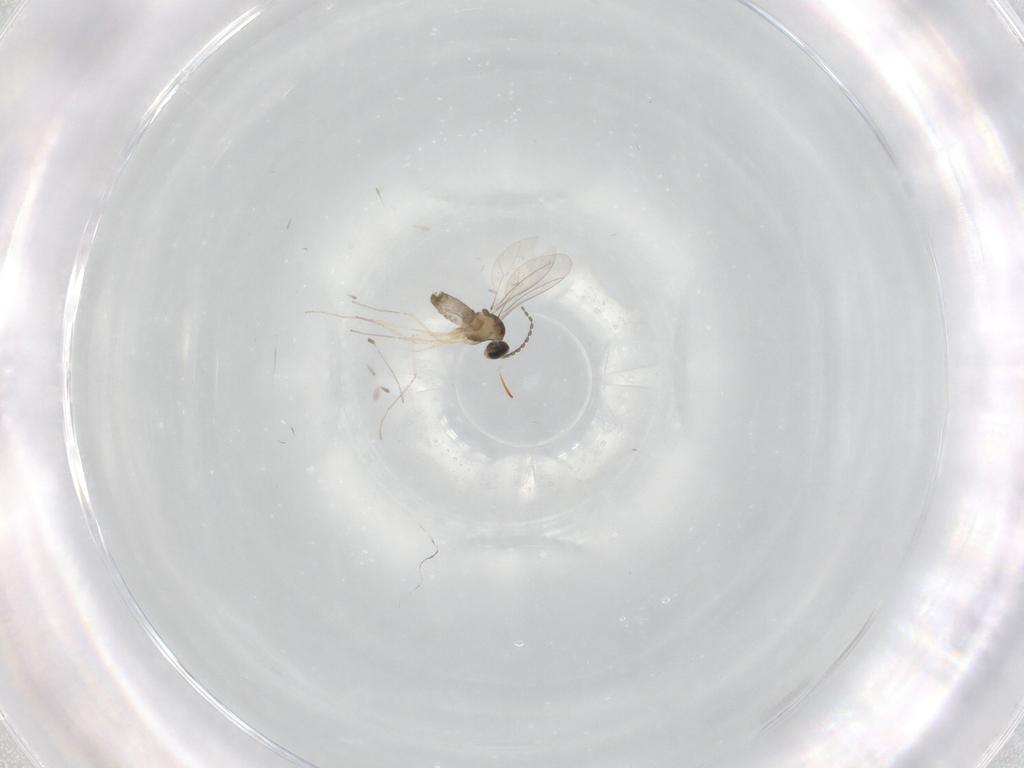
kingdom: Animalia
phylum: Arthropoda
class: Insecta
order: Diptera
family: Cecidomyiidae
